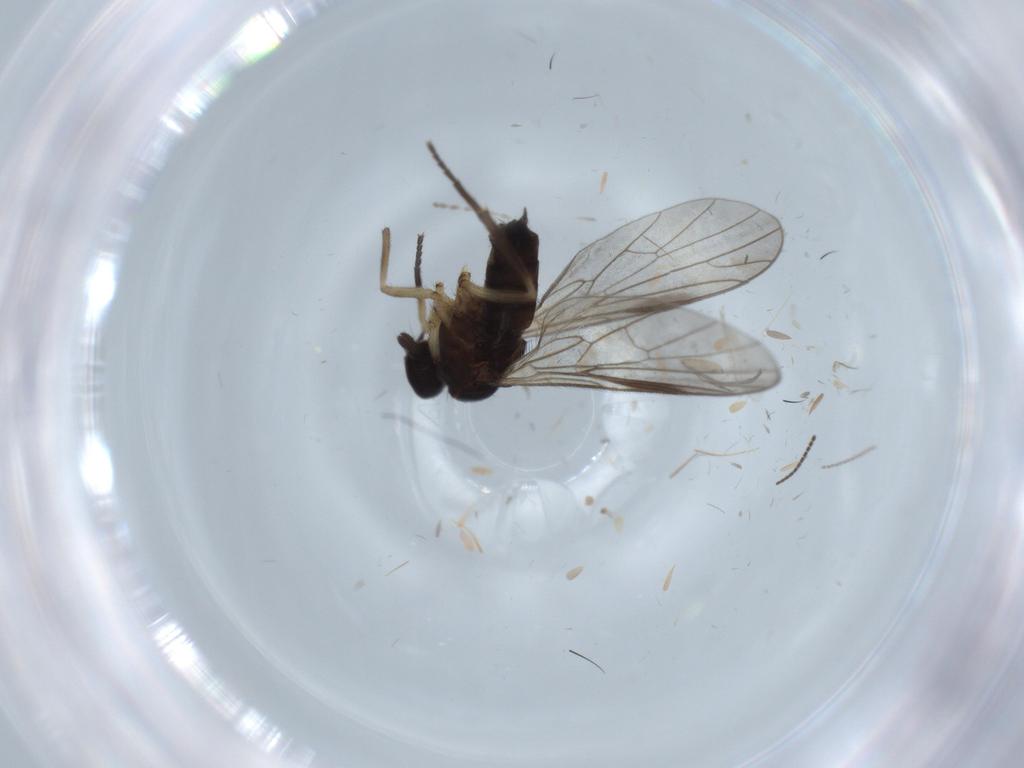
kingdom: Animalia
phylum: Arthropoda
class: Insecta
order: Diptera
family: Empididae
